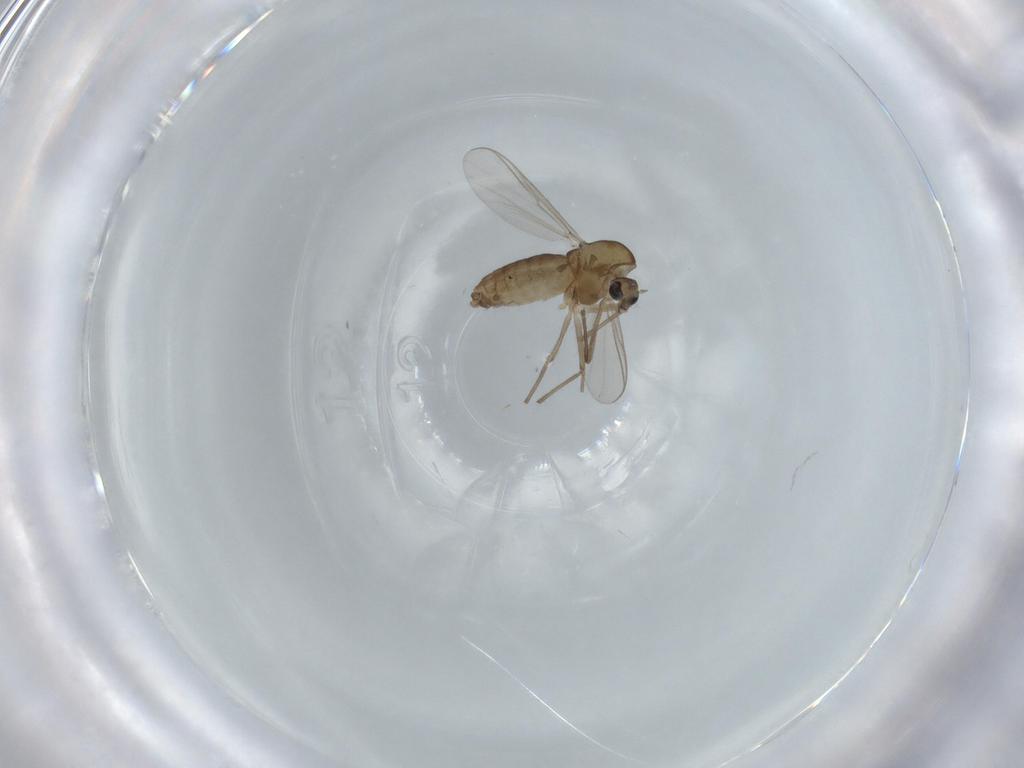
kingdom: Animalia
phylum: Arthropoda
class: Insecta
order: Diptera
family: Chironomidae
